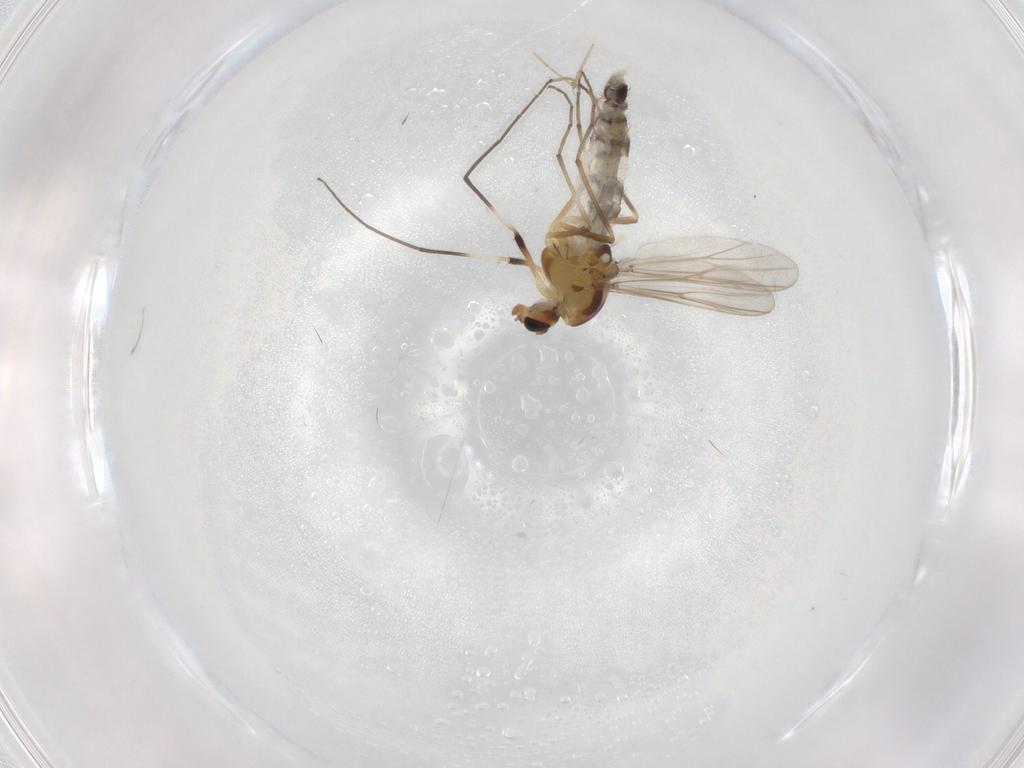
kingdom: Animalia
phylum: Arthropoda
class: Insecta
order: Diptera
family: Chironomidae
